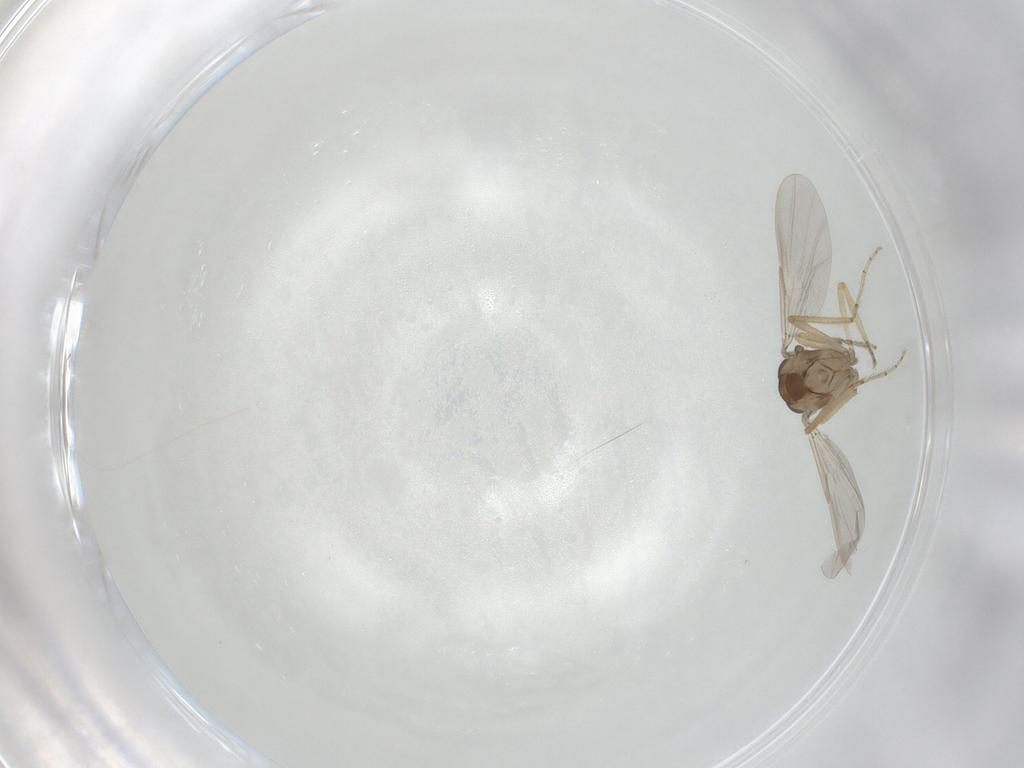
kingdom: Animalia
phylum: Arthropoda
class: Insecta
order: Diptera
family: Ceratopogonidae
